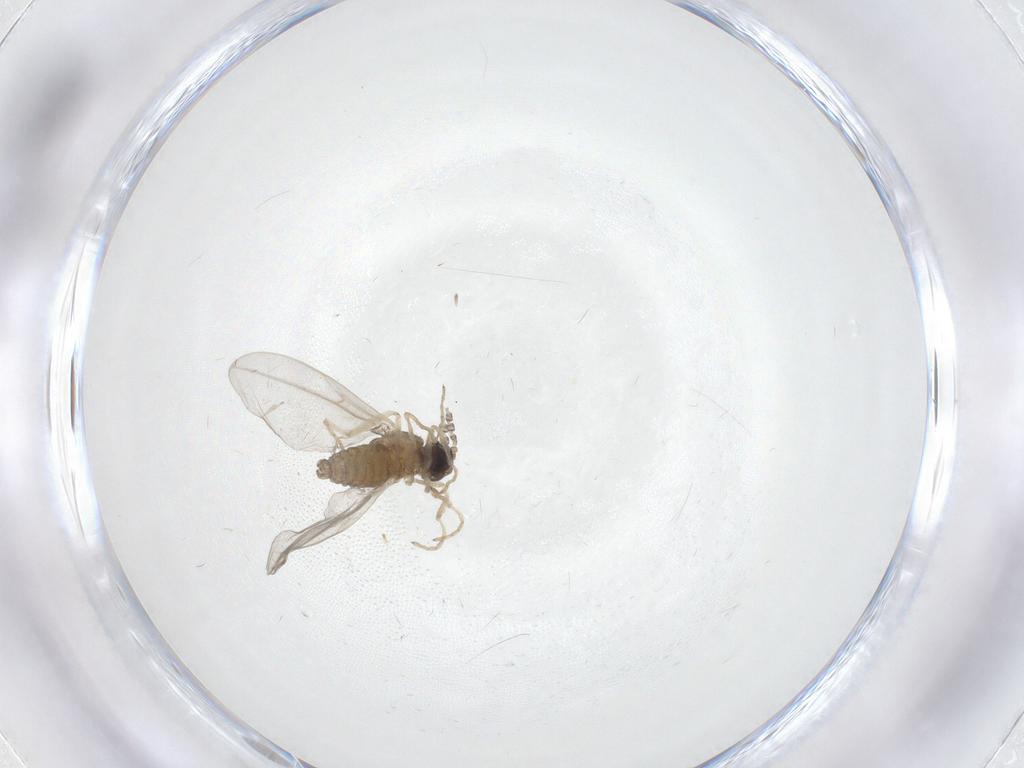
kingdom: Animalia
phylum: Arthropoda
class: Insecta
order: Diptera
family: Cecidomyiidae
